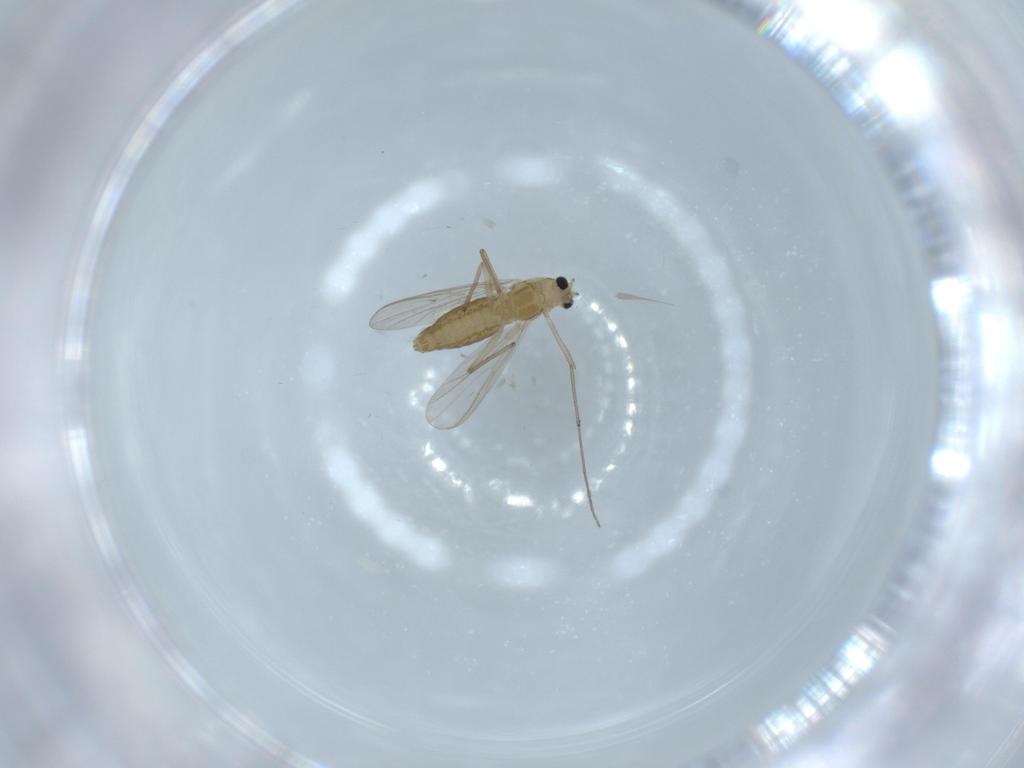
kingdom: Animalia
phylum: Arthropoda
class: Insecta
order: Diptera
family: Chironomidae
